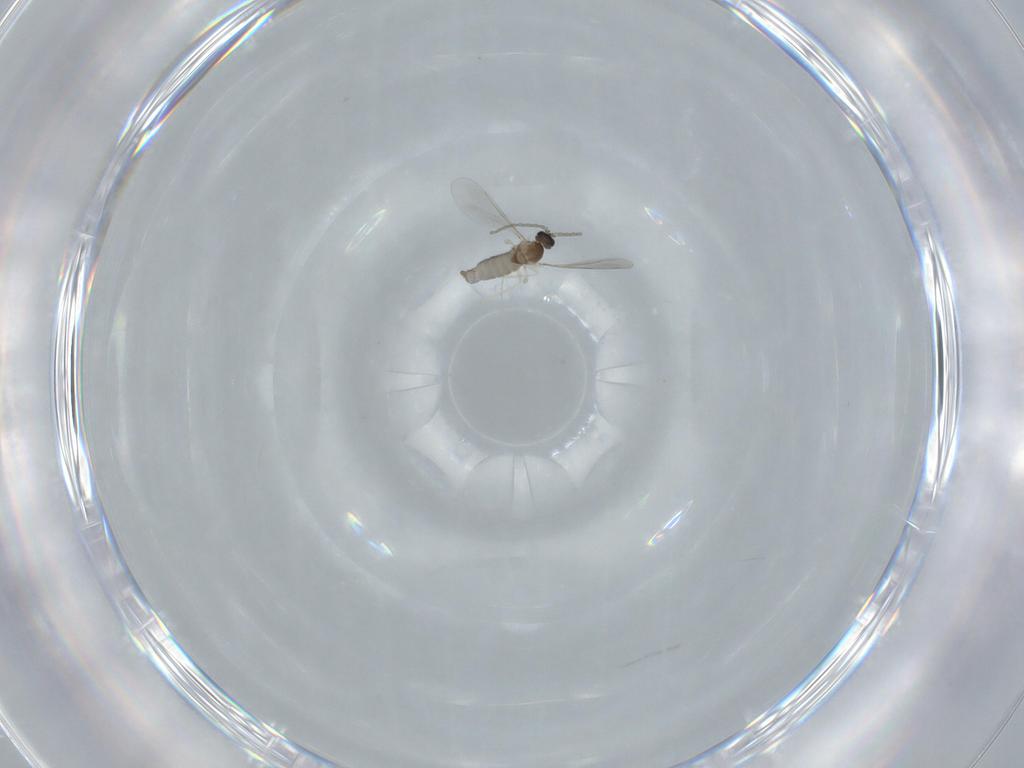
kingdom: Animalia
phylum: Arthropoda
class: Insecta
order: Diptera
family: Cecidomyiidae
